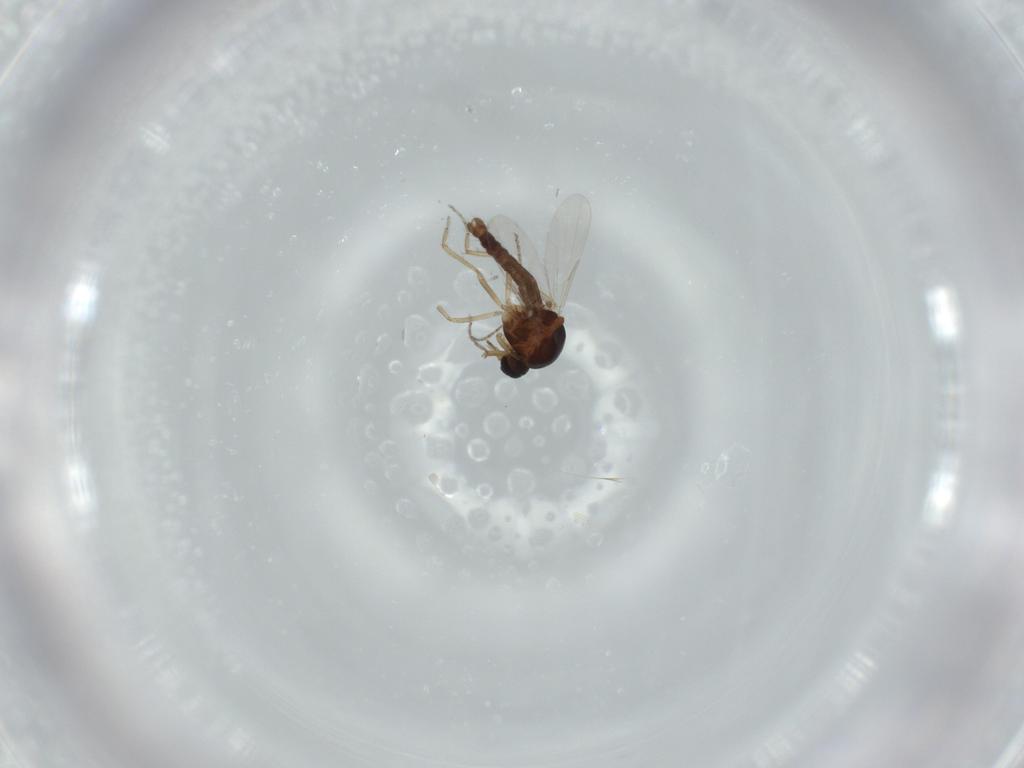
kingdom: Animalia
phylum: Arthropoda
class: Insecta
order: Diptera
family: Ceratopogonidae
